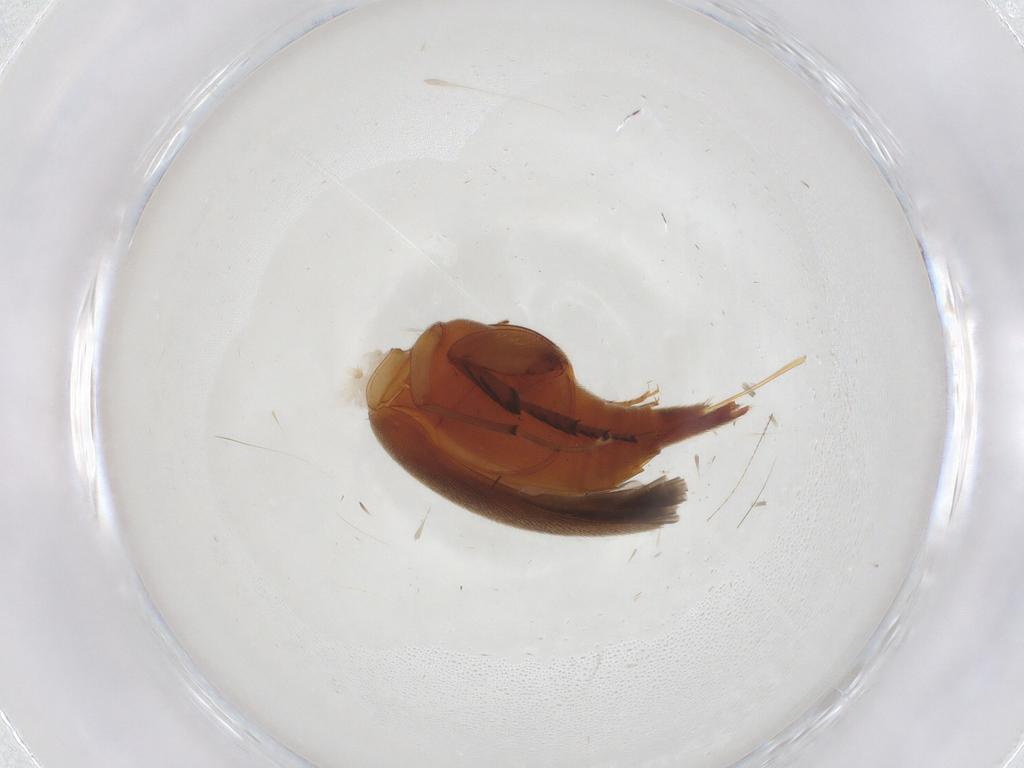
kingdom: Animalia
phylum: Arthropoda
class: Insecta
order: Coleoptera
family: Mordellidae
